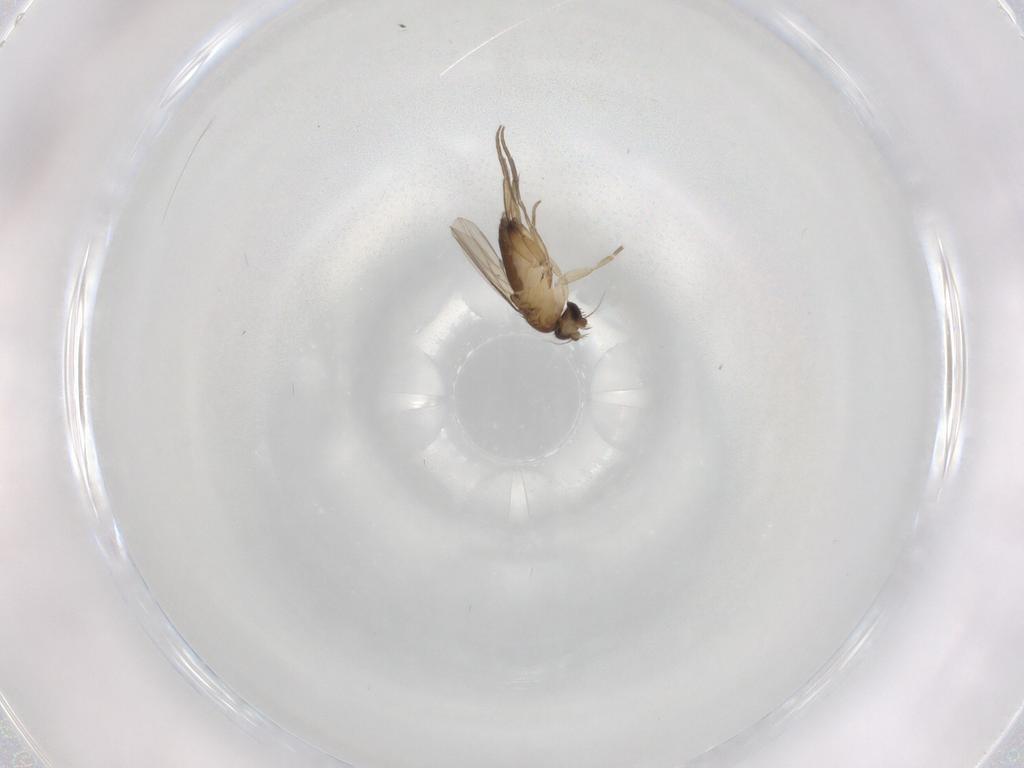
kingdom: Animalia
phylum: Arthropoda
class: Insecta
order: Diptera
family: Phoridae
